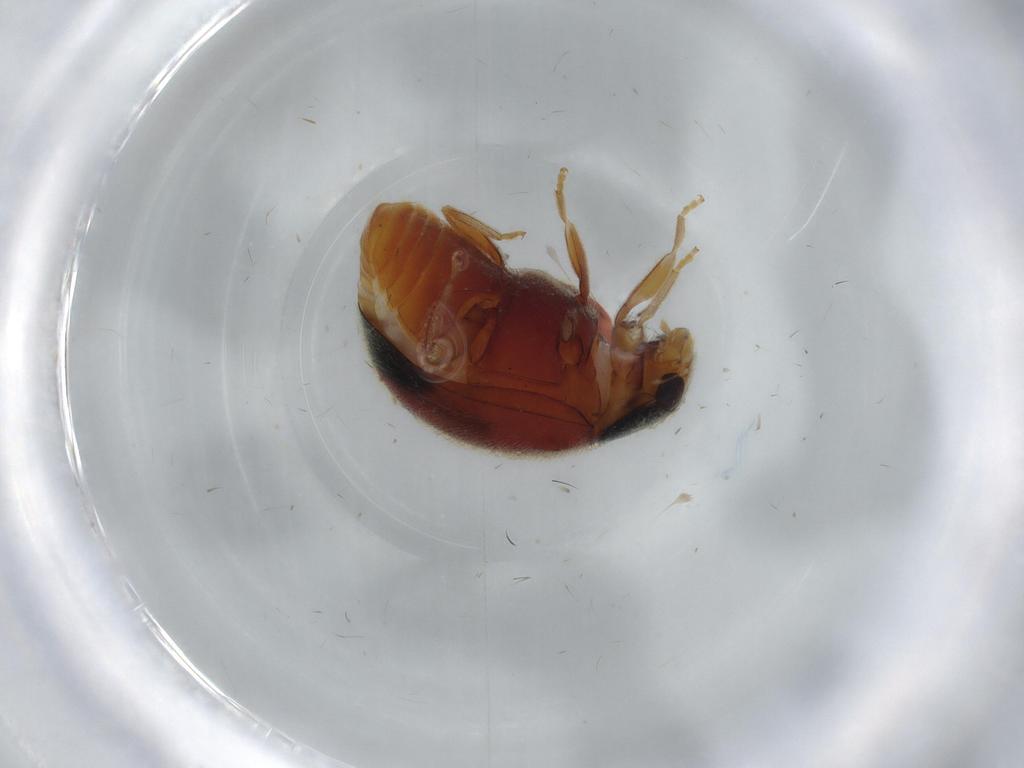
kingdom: Animalia
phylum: Arthropoda
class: Insecta
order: Coleoptera
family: Coccinellidae
